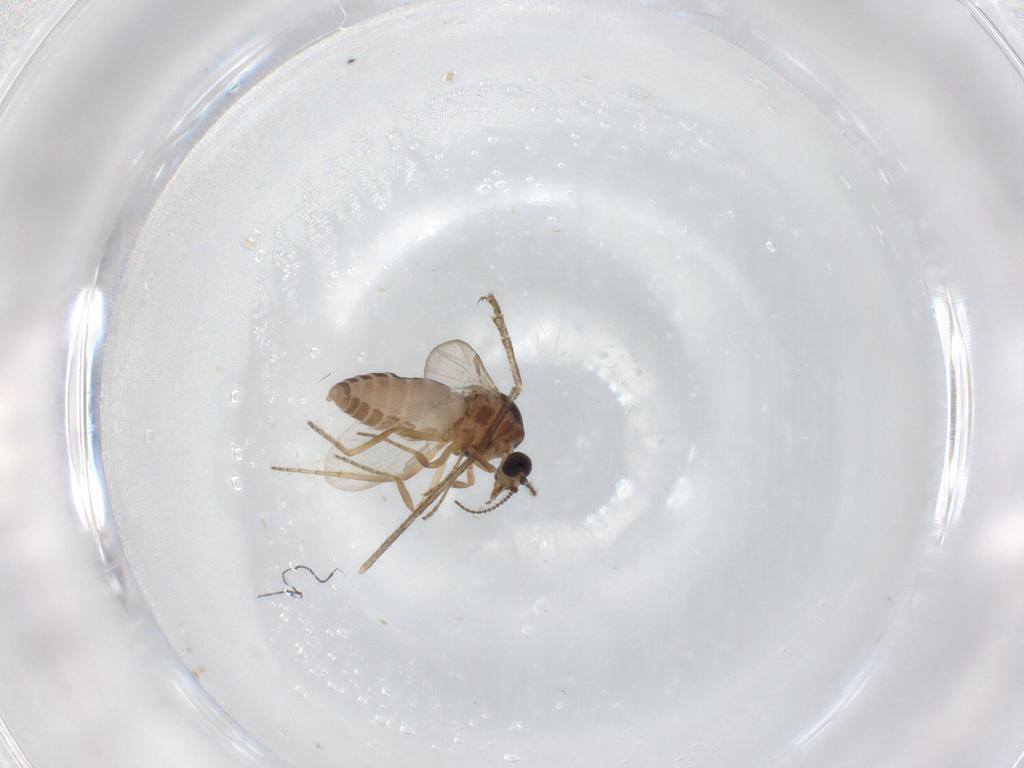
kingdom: Animalia
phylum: Arthropoda
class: Insecta
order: Diptera
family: Ceratopogonidae
